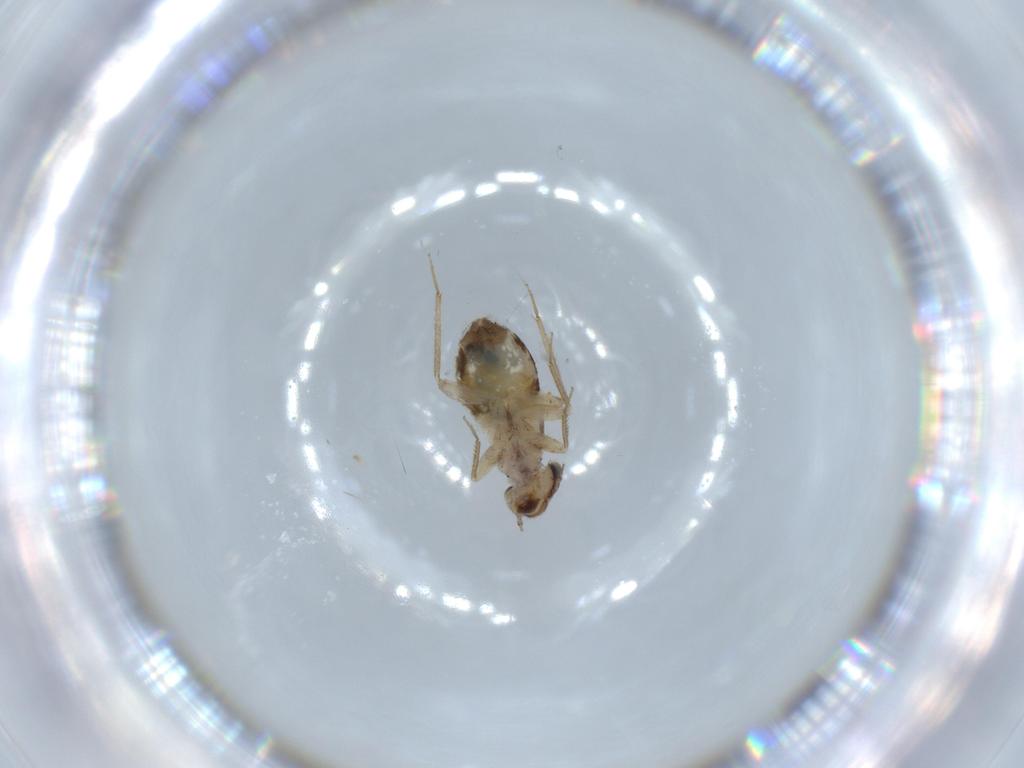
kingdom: Animalia
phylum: Arthropoda
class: Insecta
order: Psocodea
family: Lepidopsocidae
